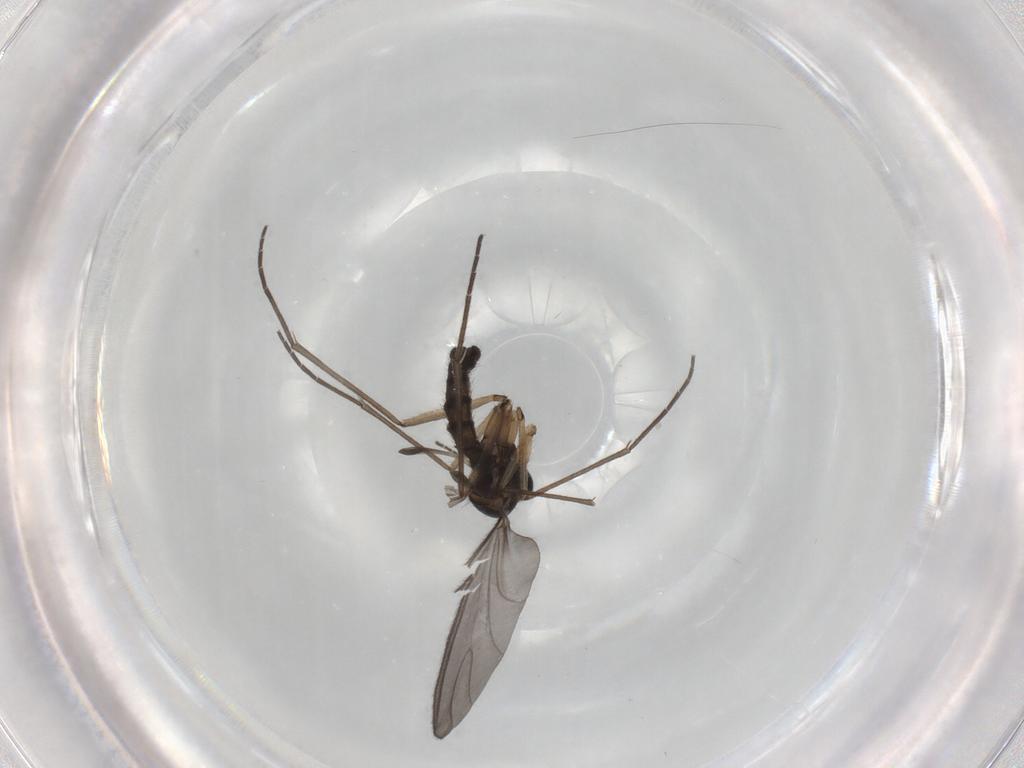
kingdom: Animalia
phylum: Arthropoda
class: Insecta
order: Diptera
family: Sciaridae
